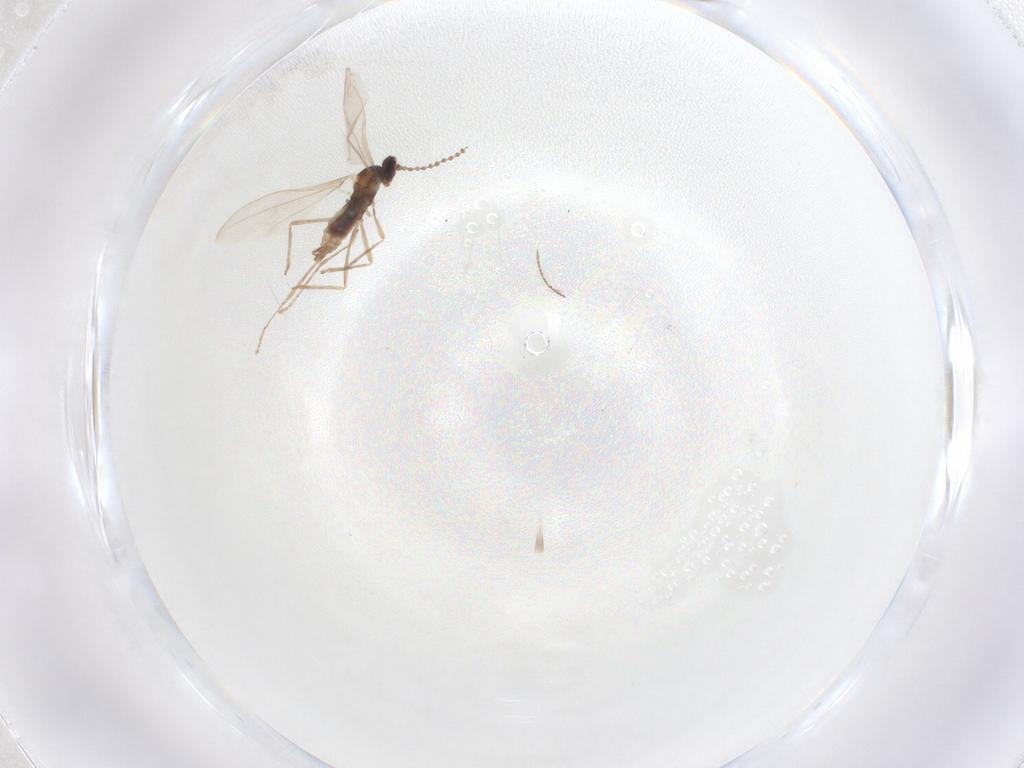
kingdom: Animalia
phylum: Arthropoda
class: Insecta
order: Diptera
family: Cecidomyiidae
